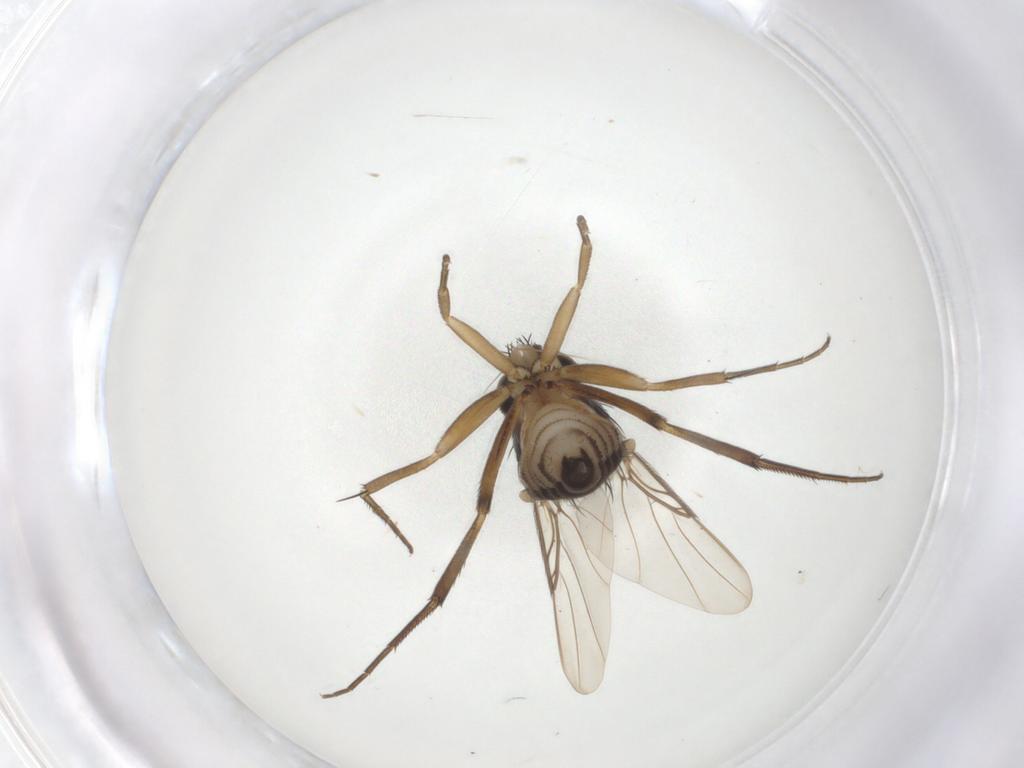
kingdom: Animalia
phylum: Arthropoda
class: Insecta
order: Diptera
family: Phoridae
